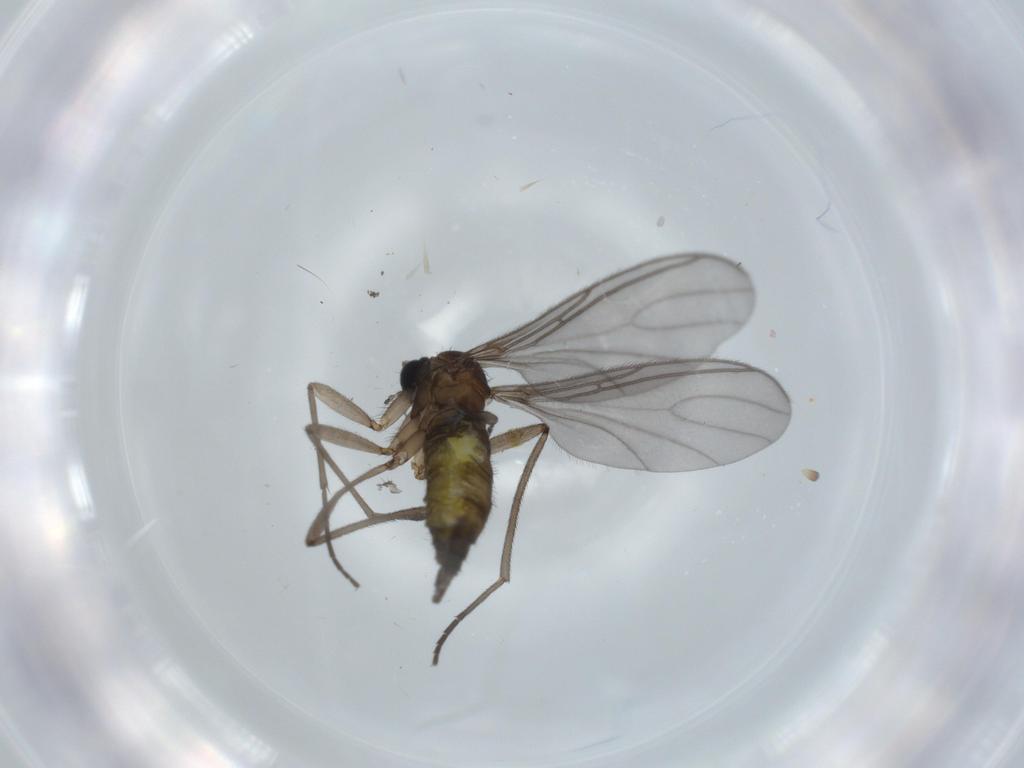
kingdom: Animalia
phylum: Arthropoda
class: Insecta
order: Diptera
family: Sciaridae
